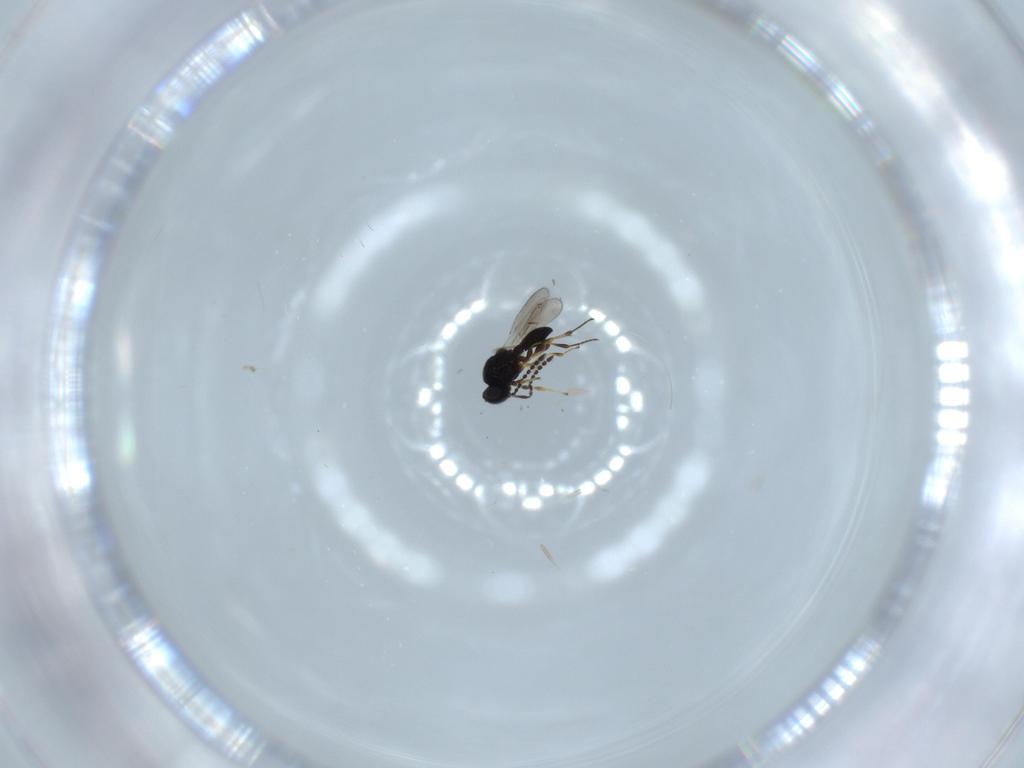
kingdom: Animalia
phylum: Arthropoda
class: Insecta
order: Hymenoptera
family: Platygastridae
